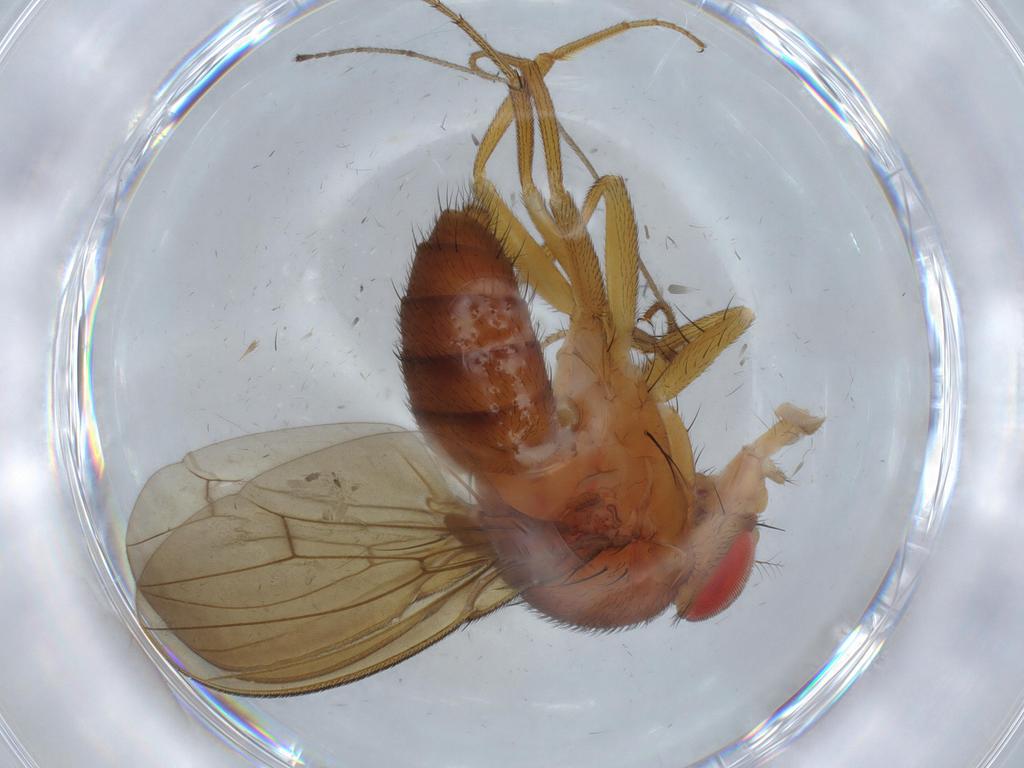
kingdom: Animalia
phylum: Arthropoda
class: Insecta
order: Diptera
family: Drosophilidae
